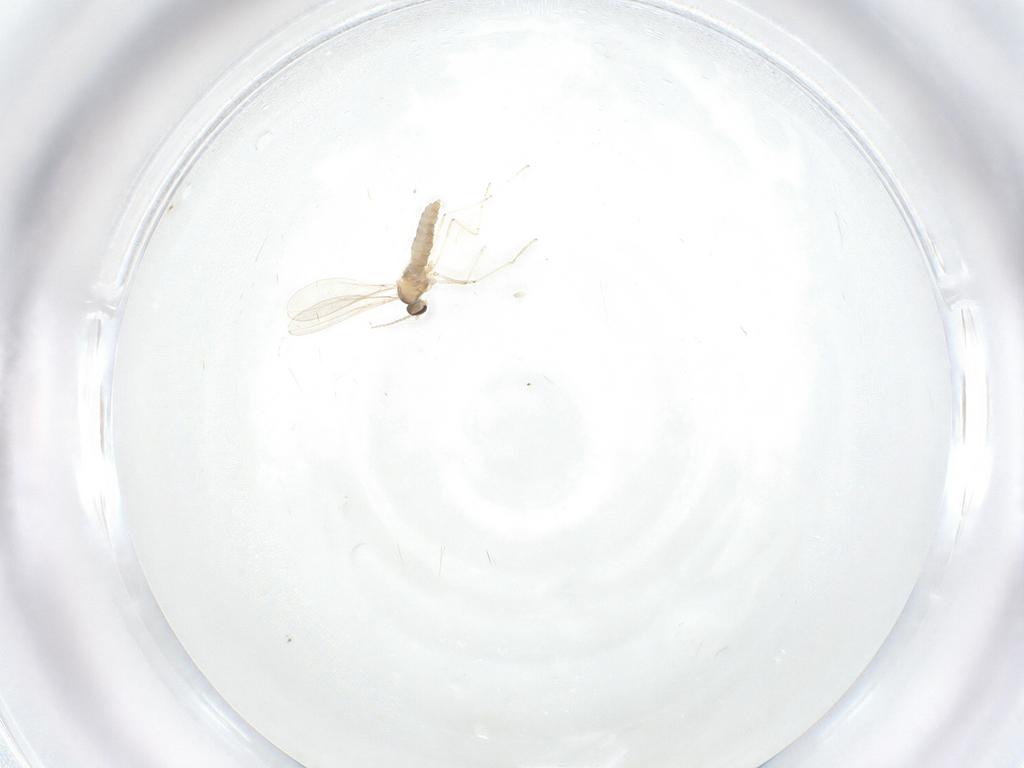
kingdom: Animalia
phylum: Arthropoda
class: Insecta
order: Diptera
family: Cecidomyiidae
